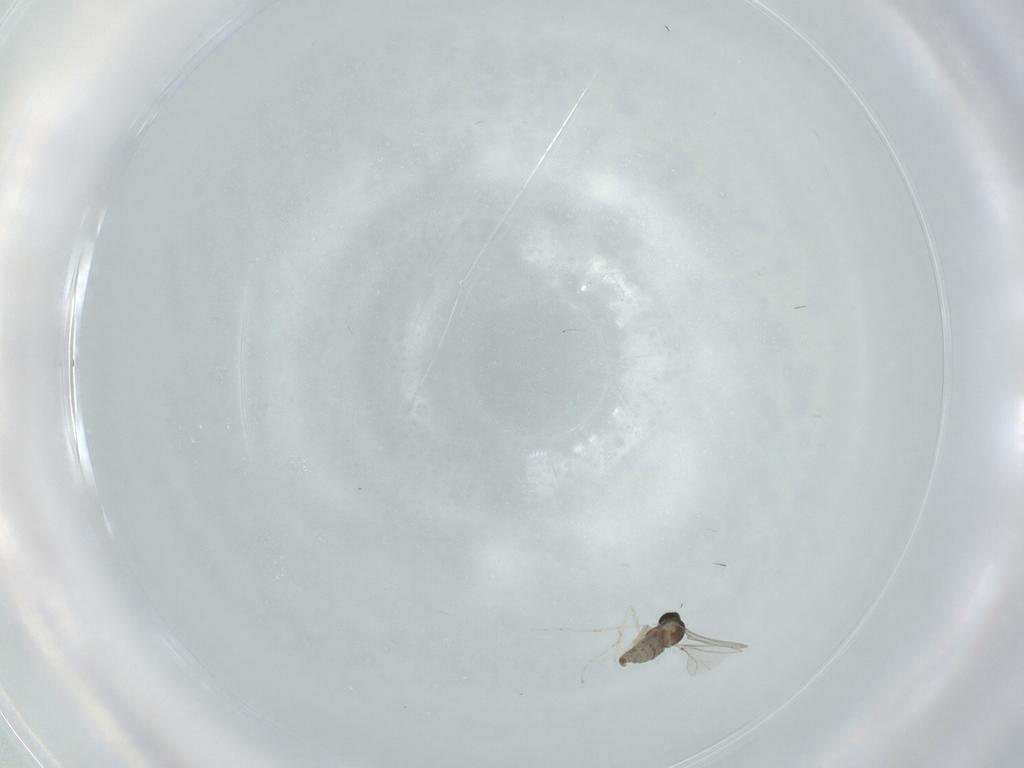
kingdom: Animalia
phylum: Arthropoda
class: Insecta
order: Diptera
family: Cecidomyiidae
